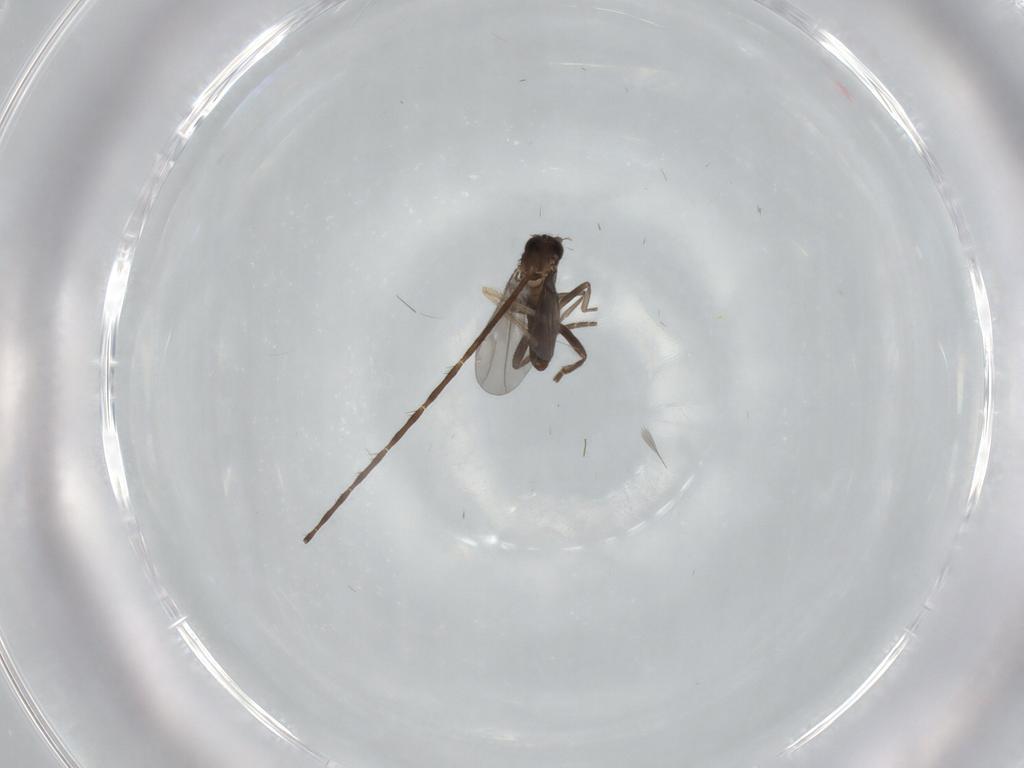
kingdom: Animalia
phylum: Arthropoda
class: Insecta
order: Diptera
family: Limoniidae
